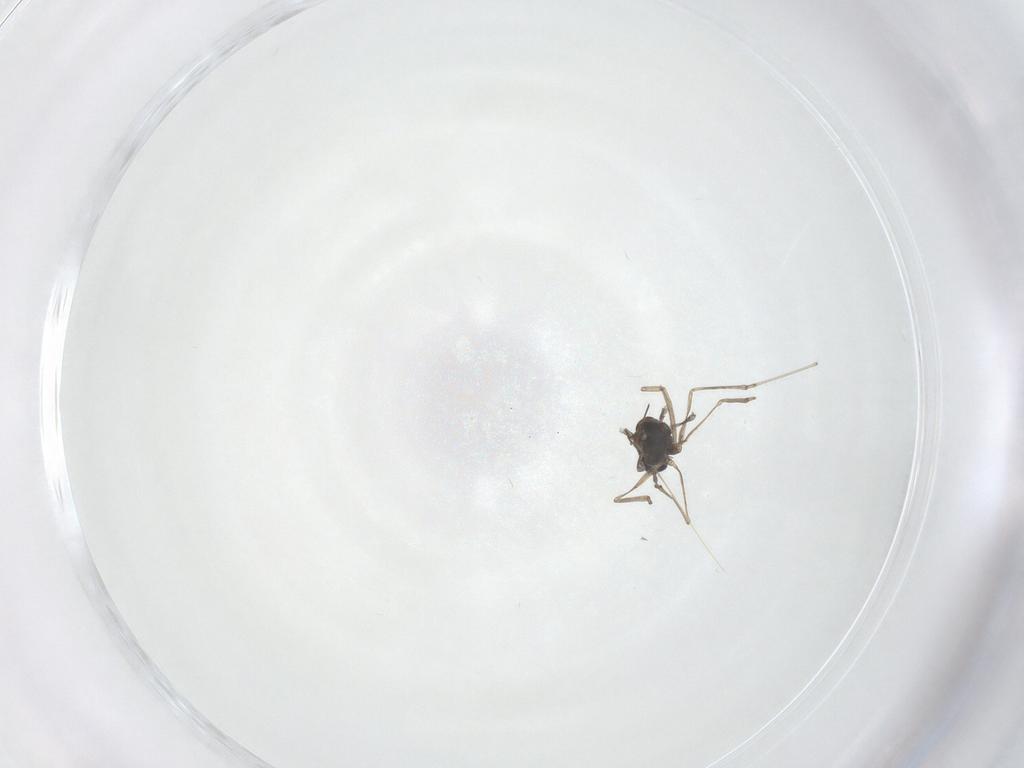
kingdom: Animalia
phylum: Arthropoda
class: Insecta
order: Diptera
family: Cecidomyiidae
